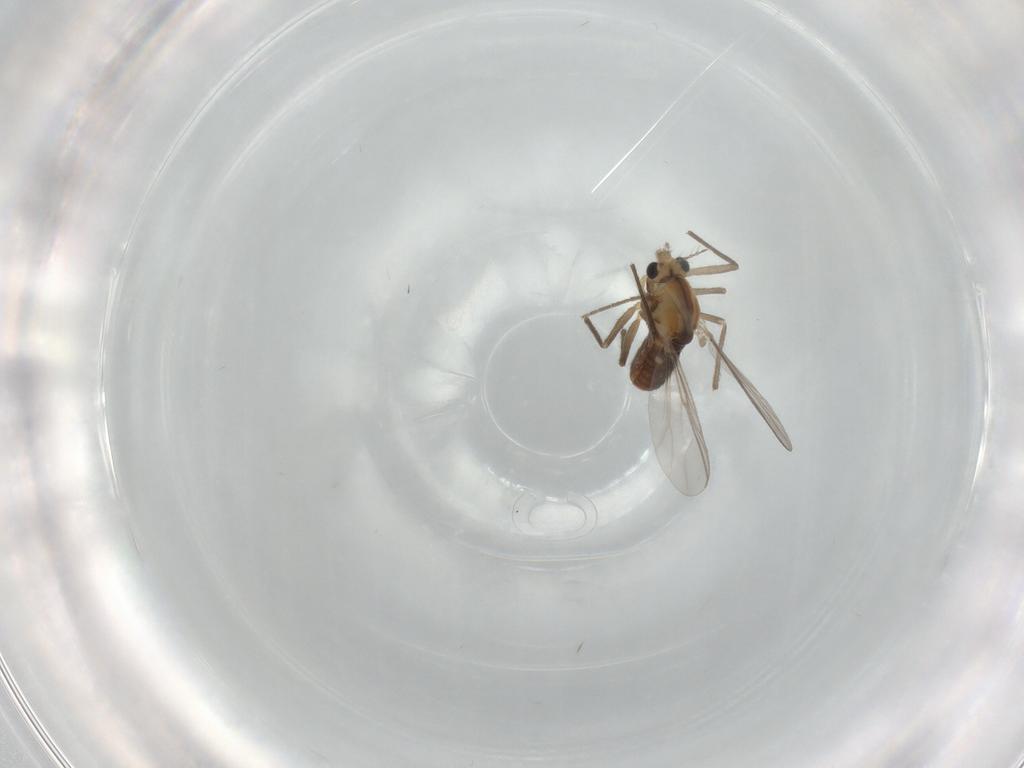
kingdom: Animalia
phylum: Arthropoda
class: Insecta
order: Diptera
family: Chironomidae
